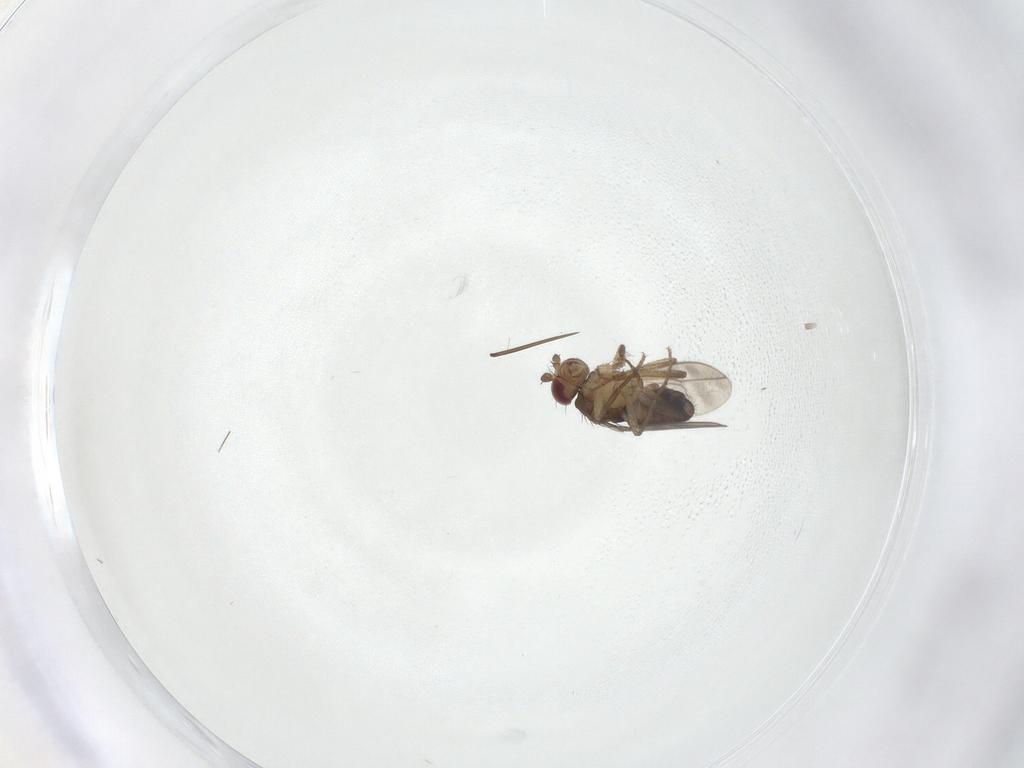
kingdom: Animalia
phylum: Arthropoda
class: Insecta
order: Diptera
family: Sphaeroceridae
